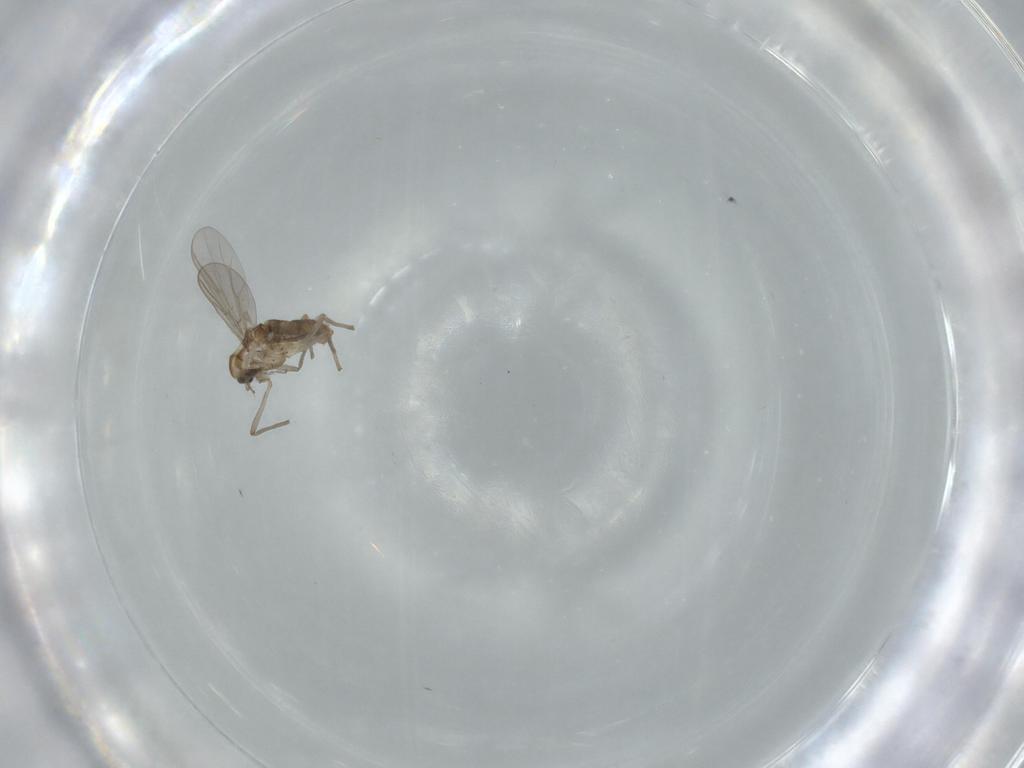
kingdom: Animalia
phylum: Arthropoda
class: Insecta
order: Diptera
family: Chironomidae
